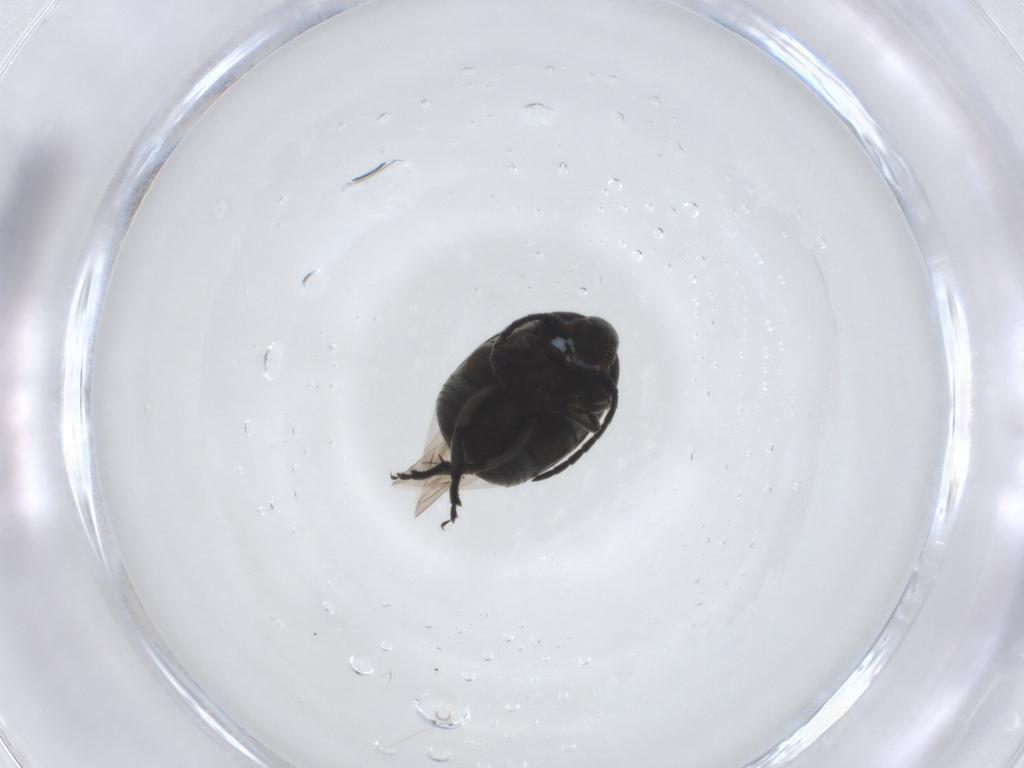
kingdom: Animalia
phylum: Arthropoda
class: Insecta
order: Coleoptera
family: Chrysomelidae
